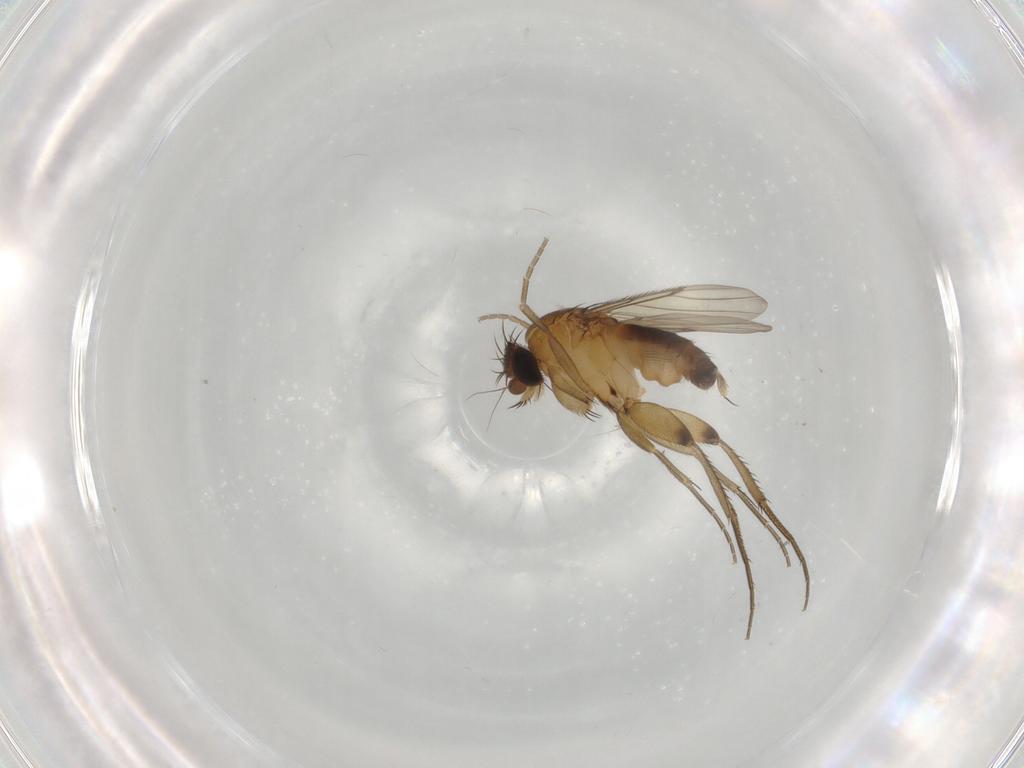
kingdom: Animalia
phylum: Arthropoda
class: Insecta
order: Diptera
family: Phoridae
